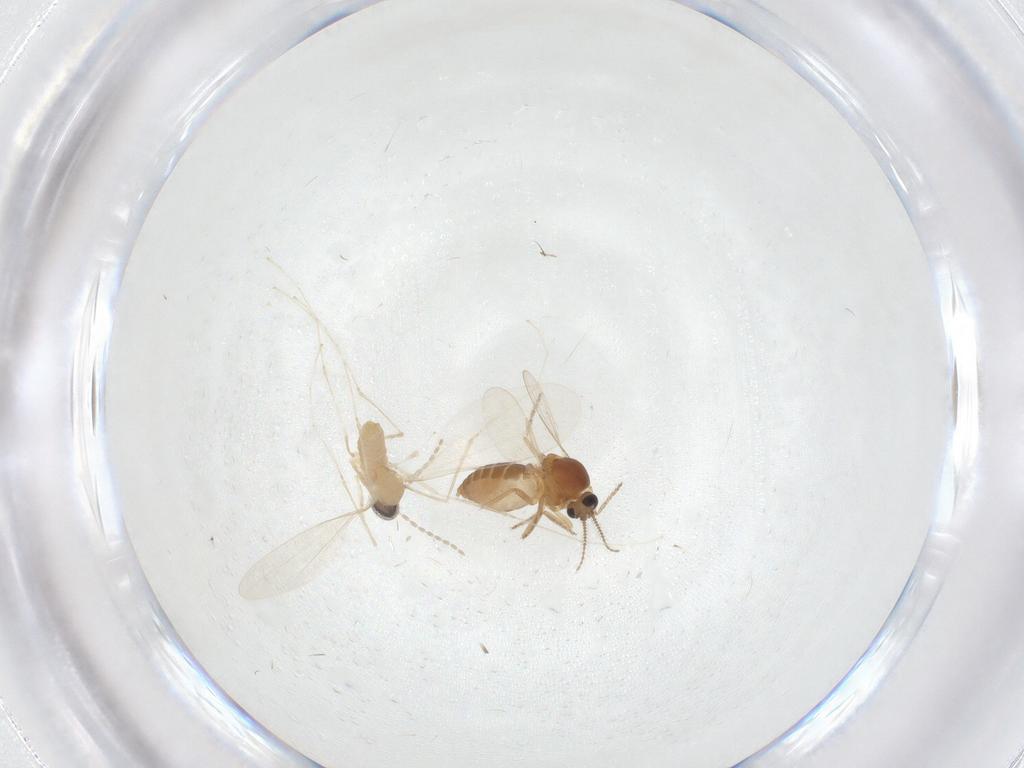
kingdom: Animalia
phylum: Arthropoda
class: Insecta
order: Diptera
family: Ceratopogonidae
